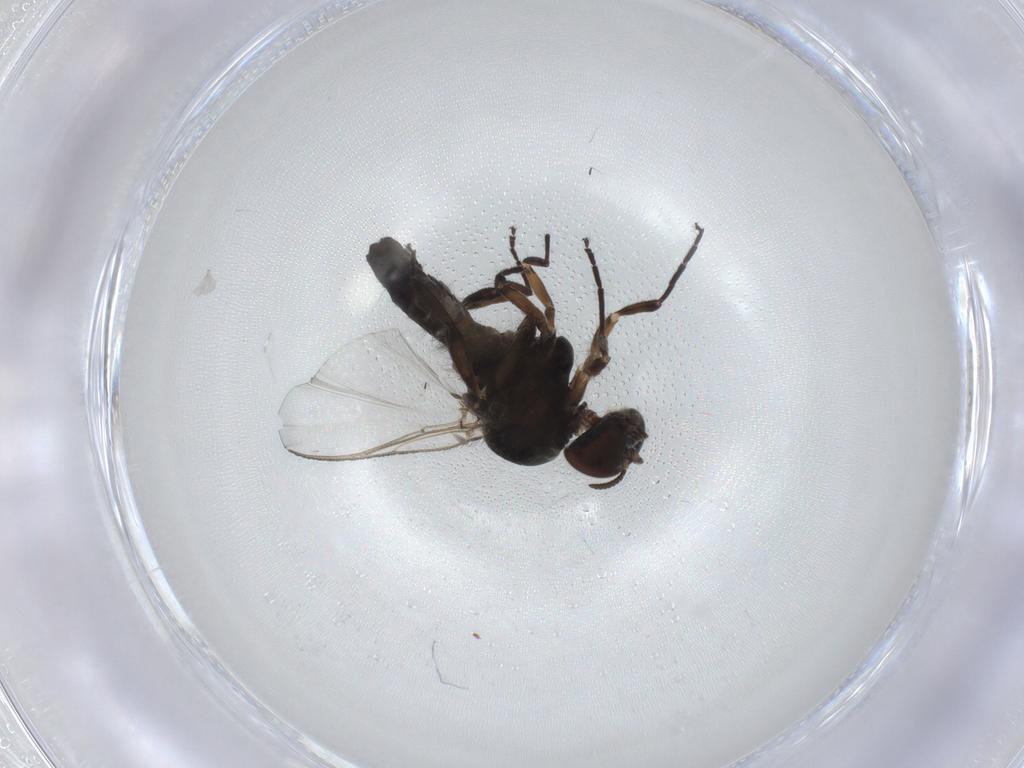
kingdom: Animalia
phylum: Arthropoda
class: Insecta
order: Diptera
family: Cecidomyiidae
